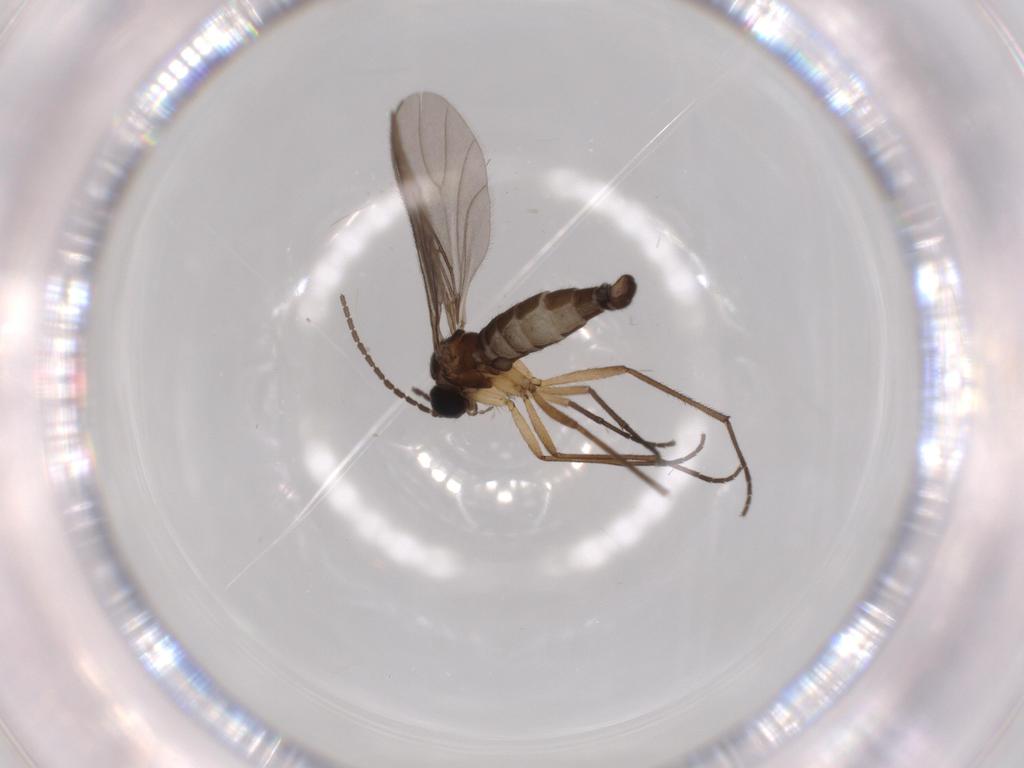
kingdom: Animalia
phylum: Arthropoda
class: Insecta
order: Diptera
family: Sciaridae
